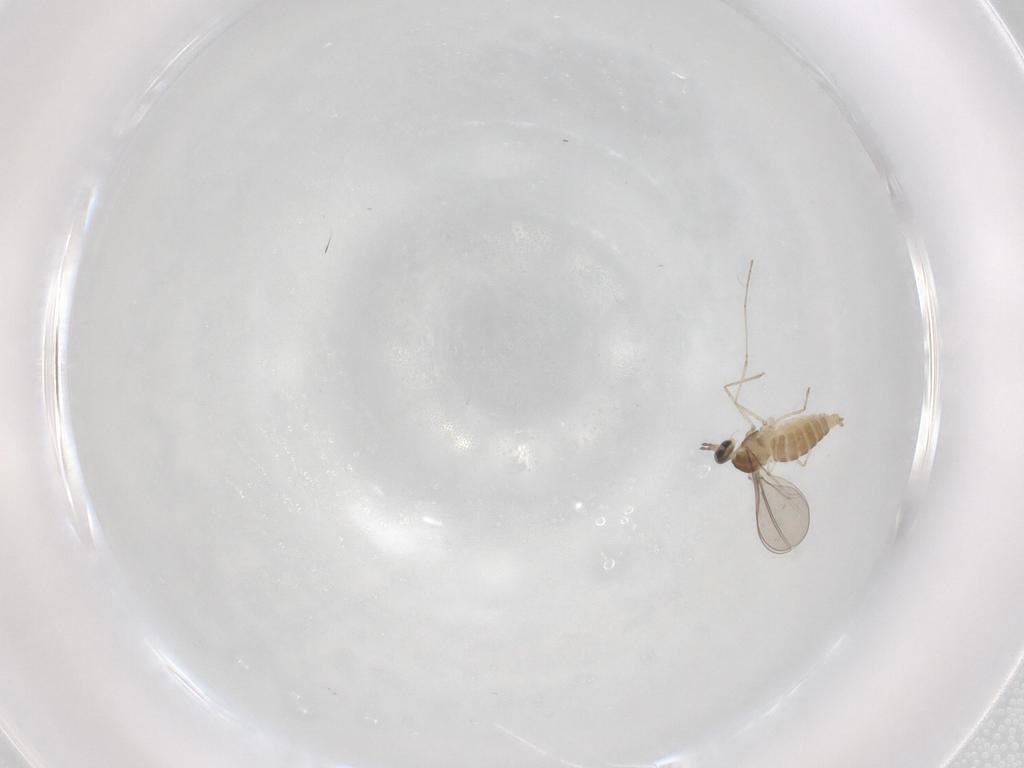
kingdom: Animalia
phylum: Arthropoda
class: Insecta
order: Diptera
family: Cecidomyiidae
